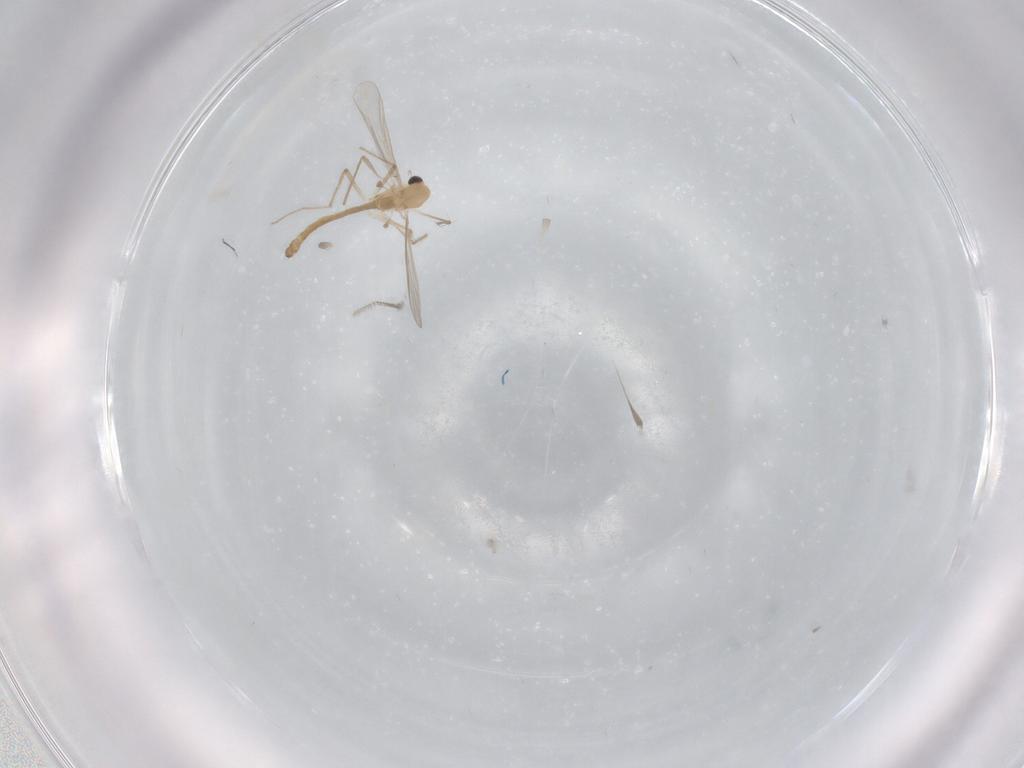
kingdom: Animalia
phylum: Arthropoda
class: Insecta
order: Diptera
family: Chironomidae
